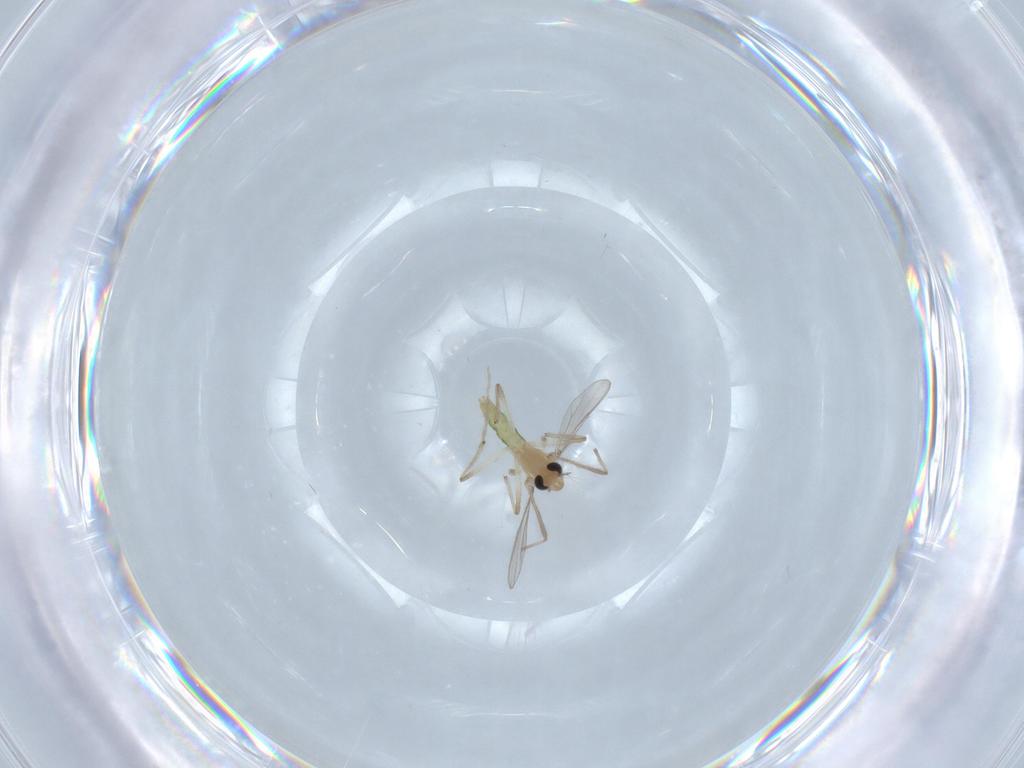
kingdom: Animalia
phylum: Arthropoda
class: Insecta
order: Diptera
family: Chironomidae
